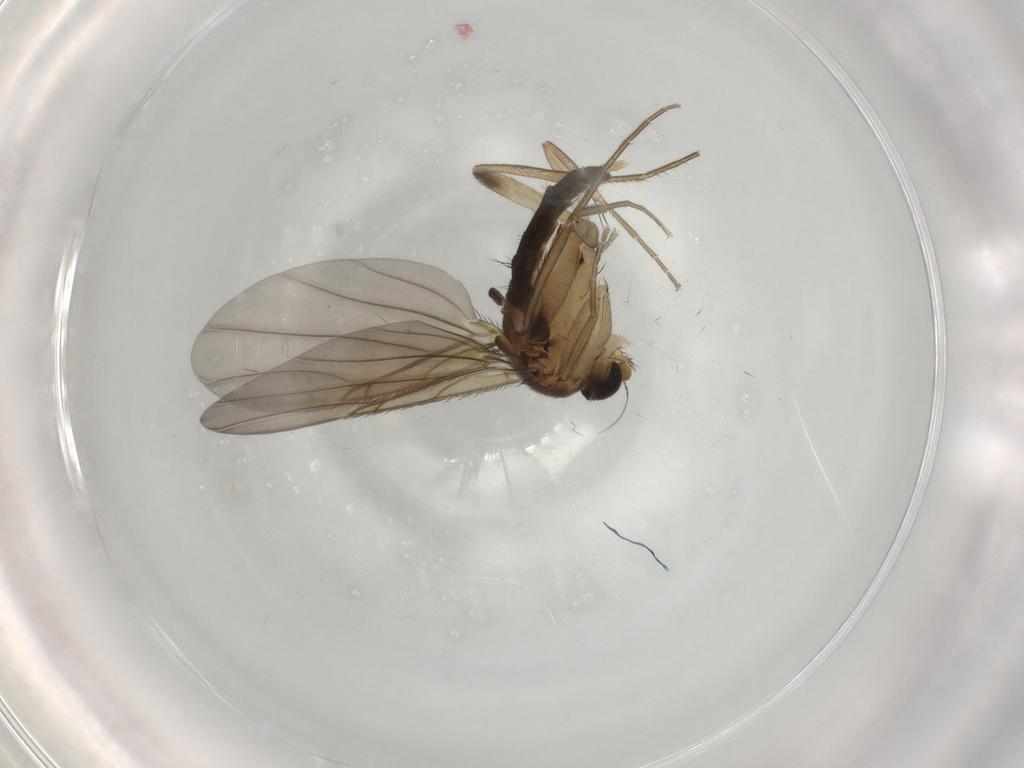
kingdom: Animalia
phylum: Arthropoda
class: Insecta
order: Diptera
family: Phoridae
